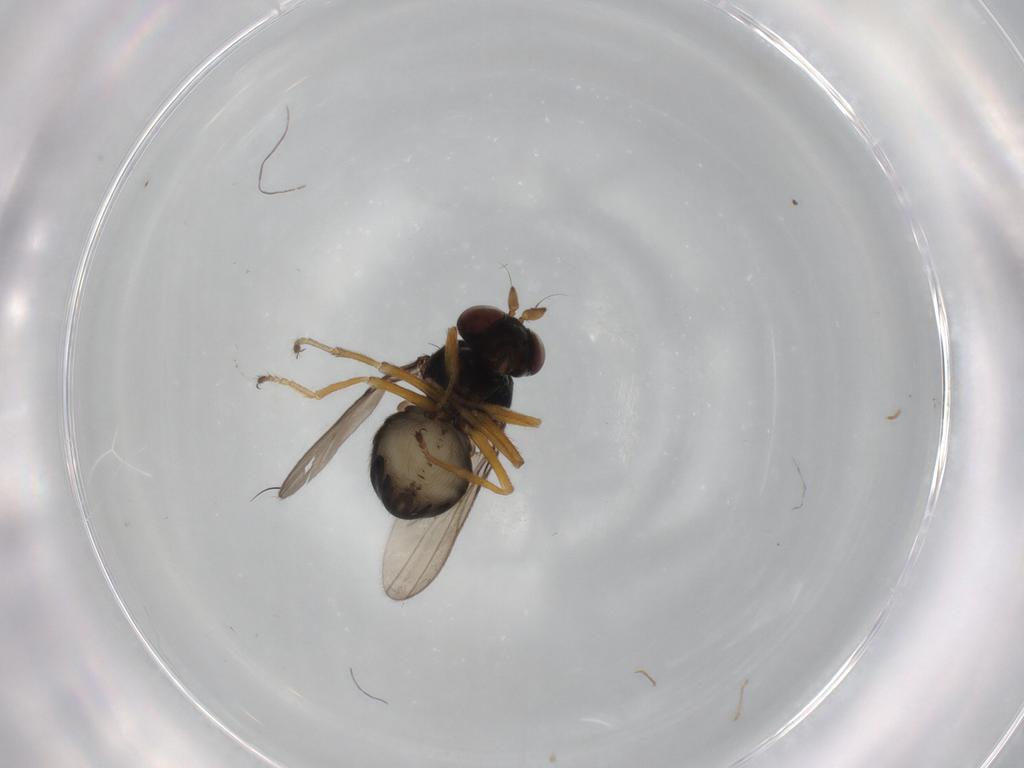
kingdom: Animalia
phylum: Arthropoda
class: Insecta
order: Diptera
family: Ephydridae
